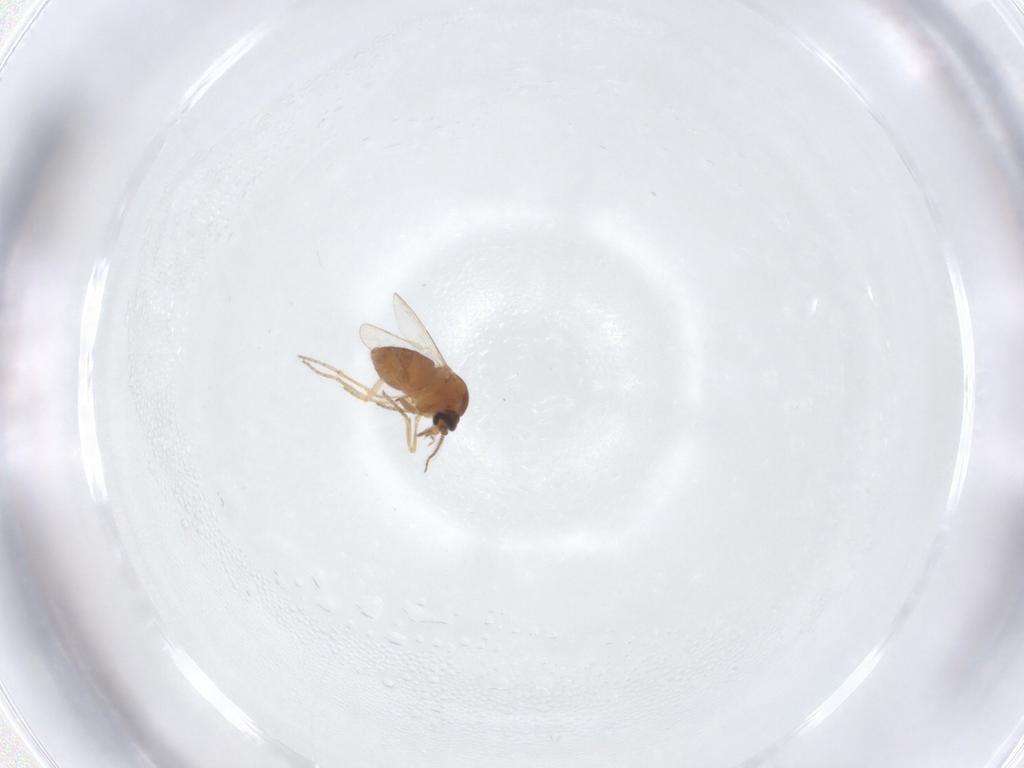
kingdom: Animalia
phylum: Arthropoda
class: Insecta
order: Diptera
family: Ceratopogonidae
